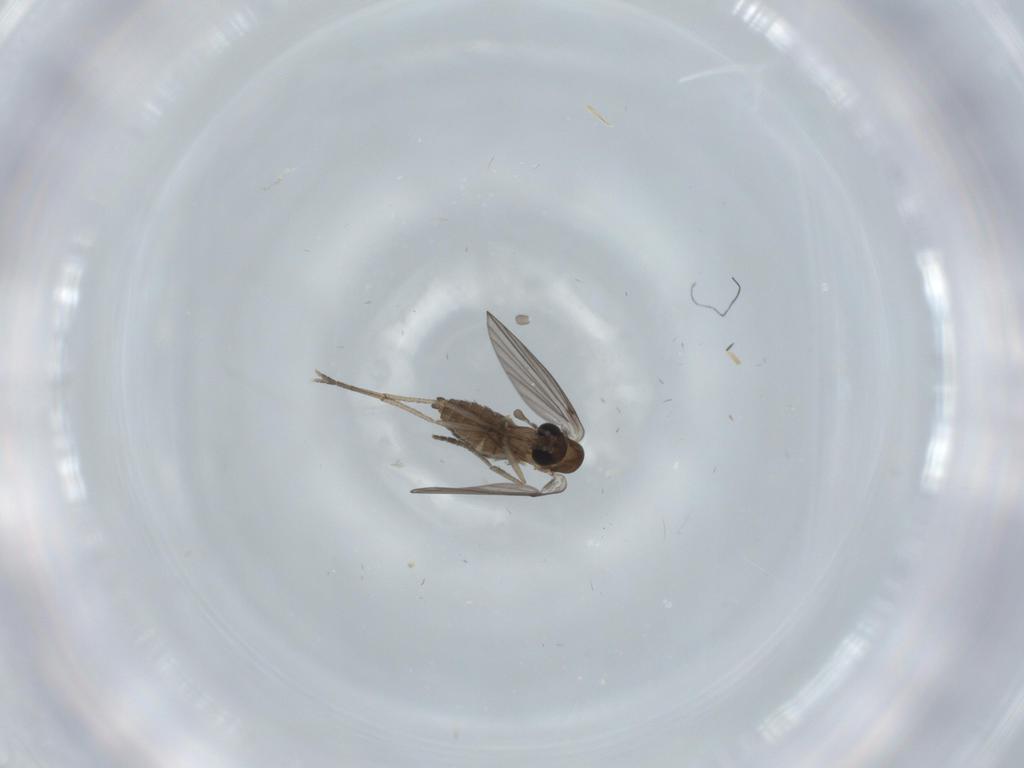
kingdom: Animalia
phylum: Arthropoda
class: Insecta
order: Diptera
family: Psychodidae
